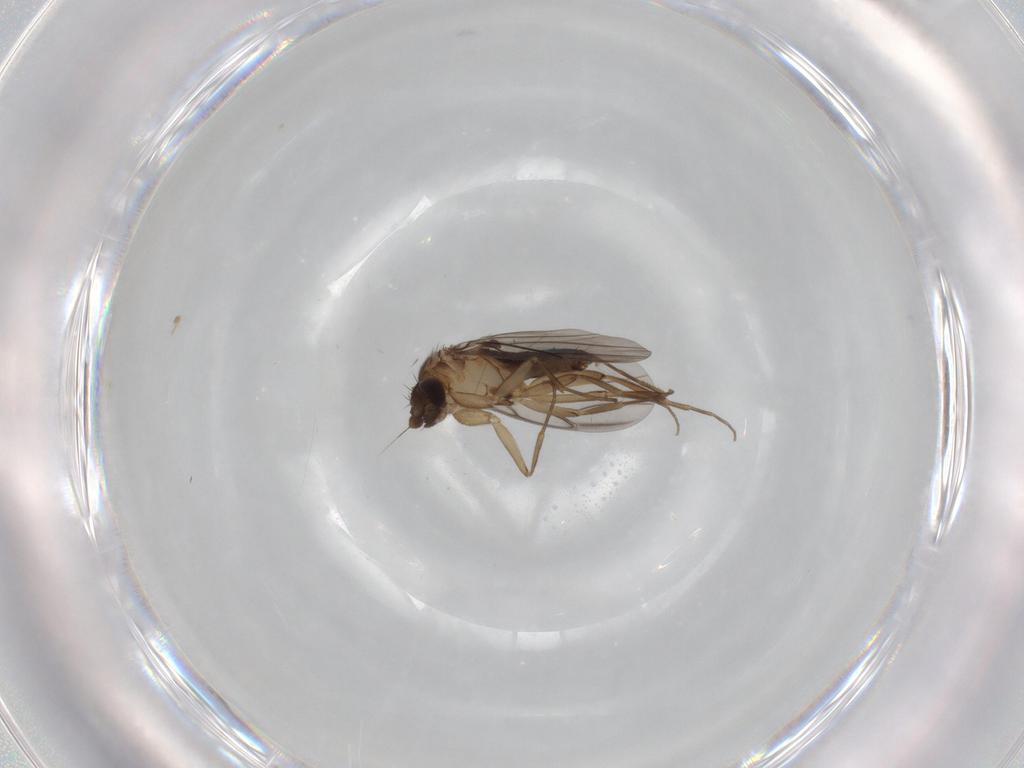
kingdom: Animalia
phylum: Arthropoda
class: Insecta
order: Diptera
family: Phoridae
